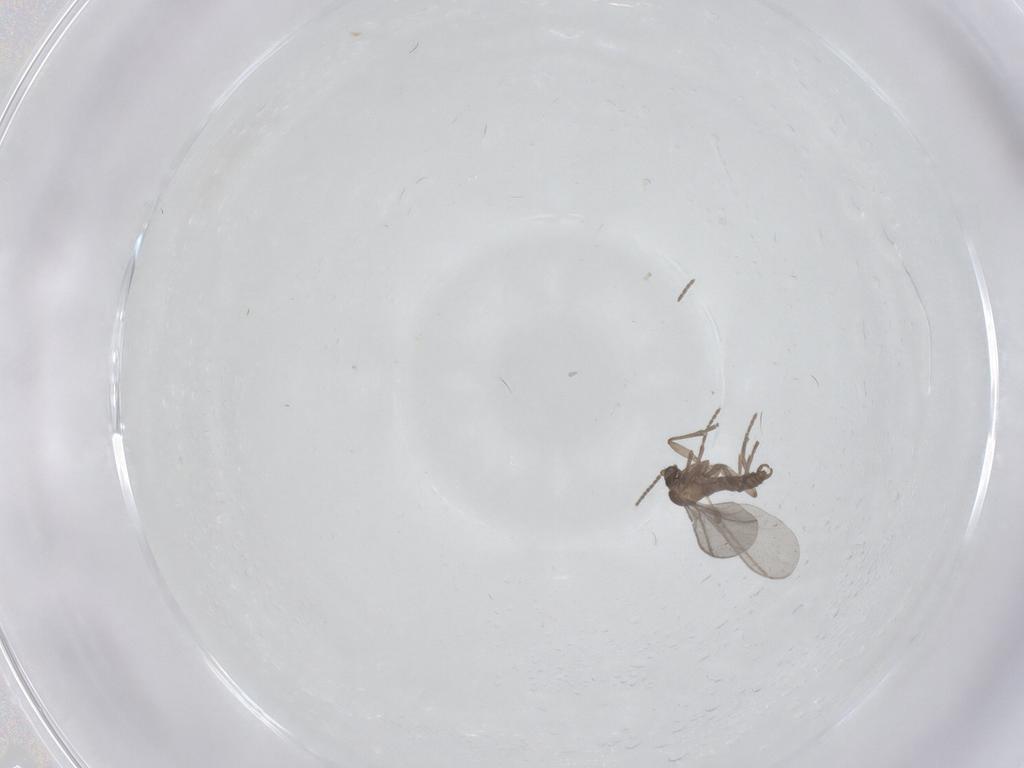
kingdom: Animalia
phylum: Arthropoda
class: Insecta
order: Diptera
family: Sciaridae
